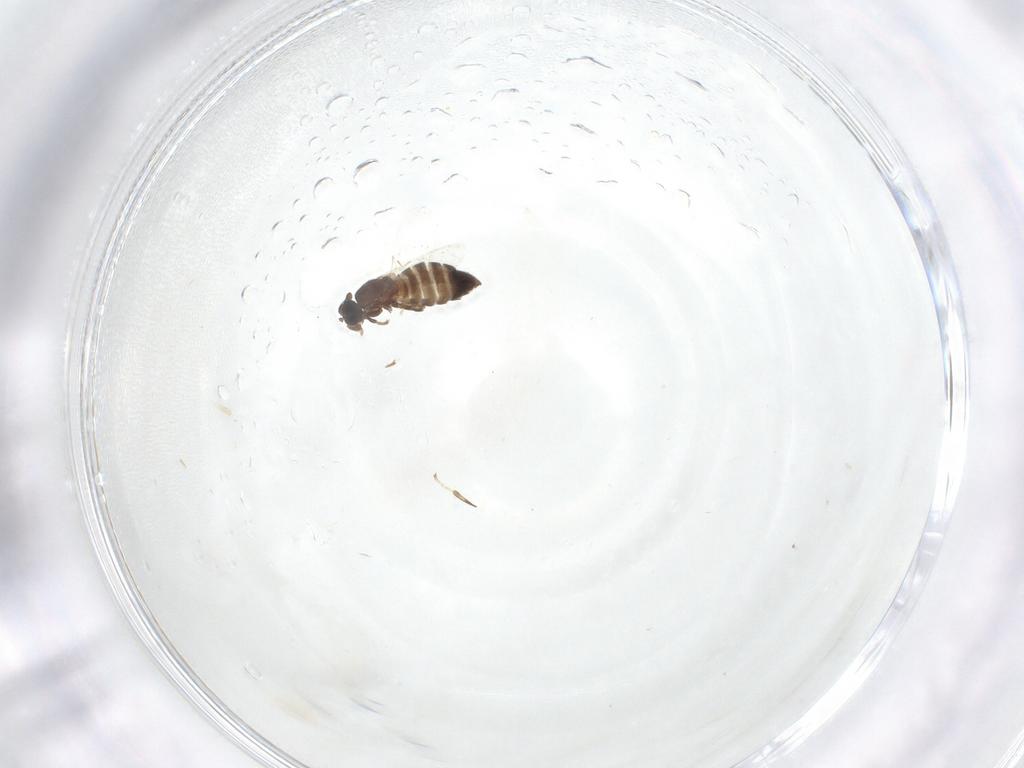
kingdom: Animalia
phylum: Arthropoda
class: Insecta
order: Diptera
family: Scatopsidae
